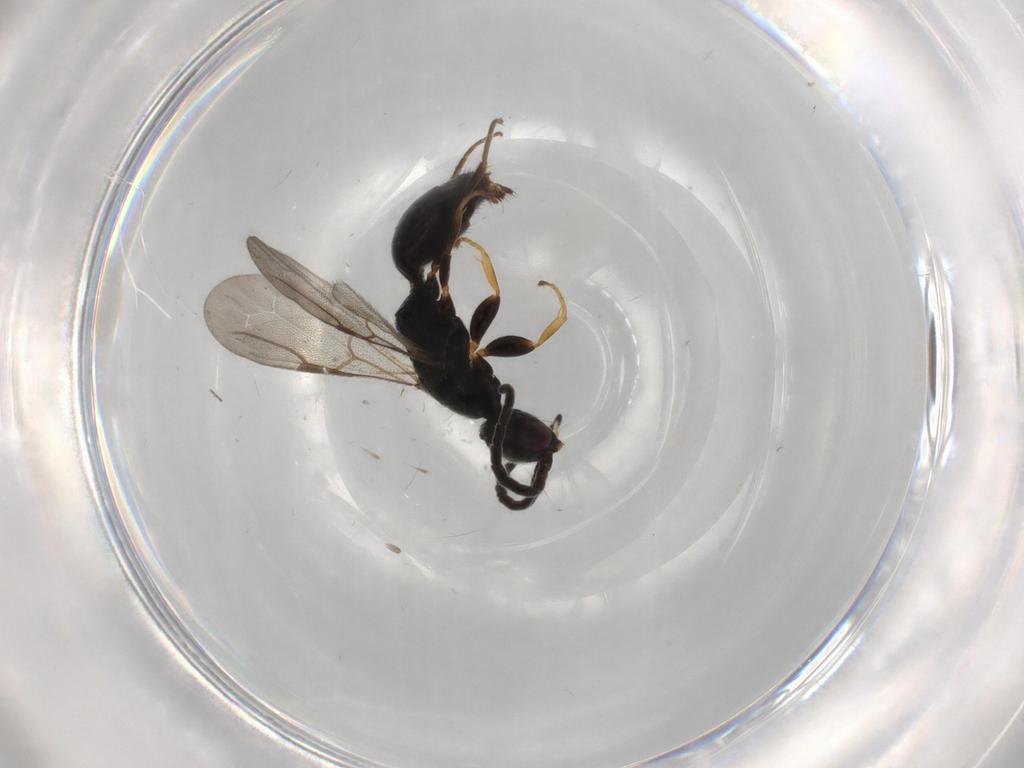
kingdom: Animalia
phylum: Arthropoda
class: Insecta
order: Hymenoptera
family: Bethylidae
